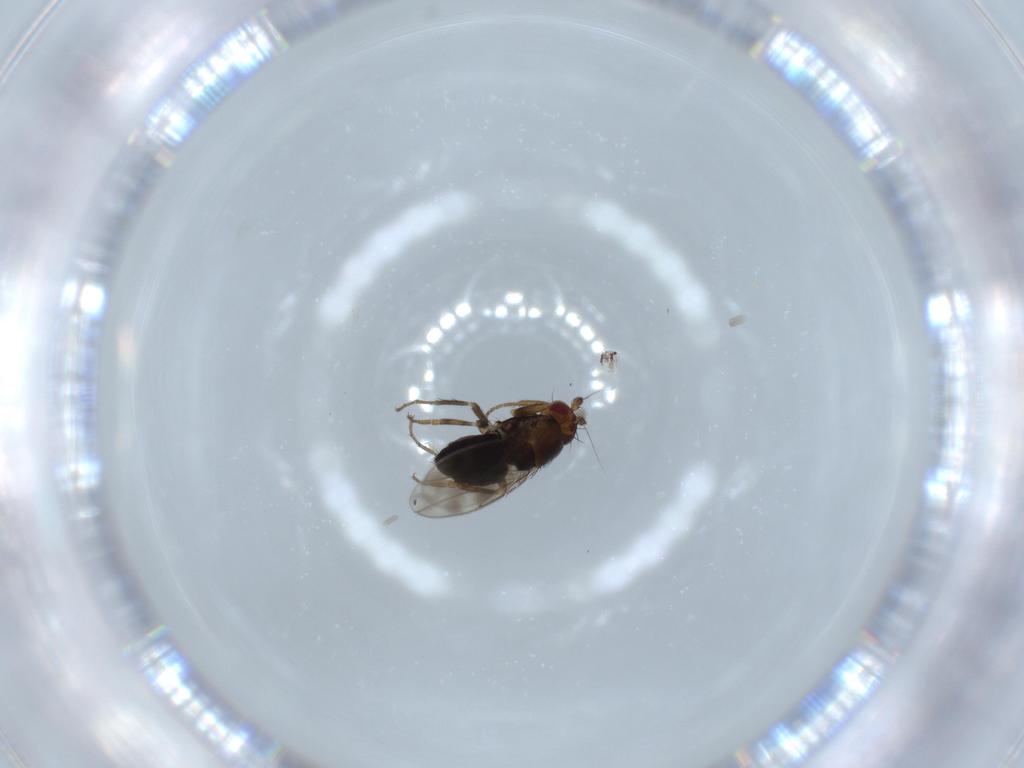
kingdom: Animalia
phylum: Arthropoda
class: Insecta
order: Diptera
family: Sphaeroceridae
